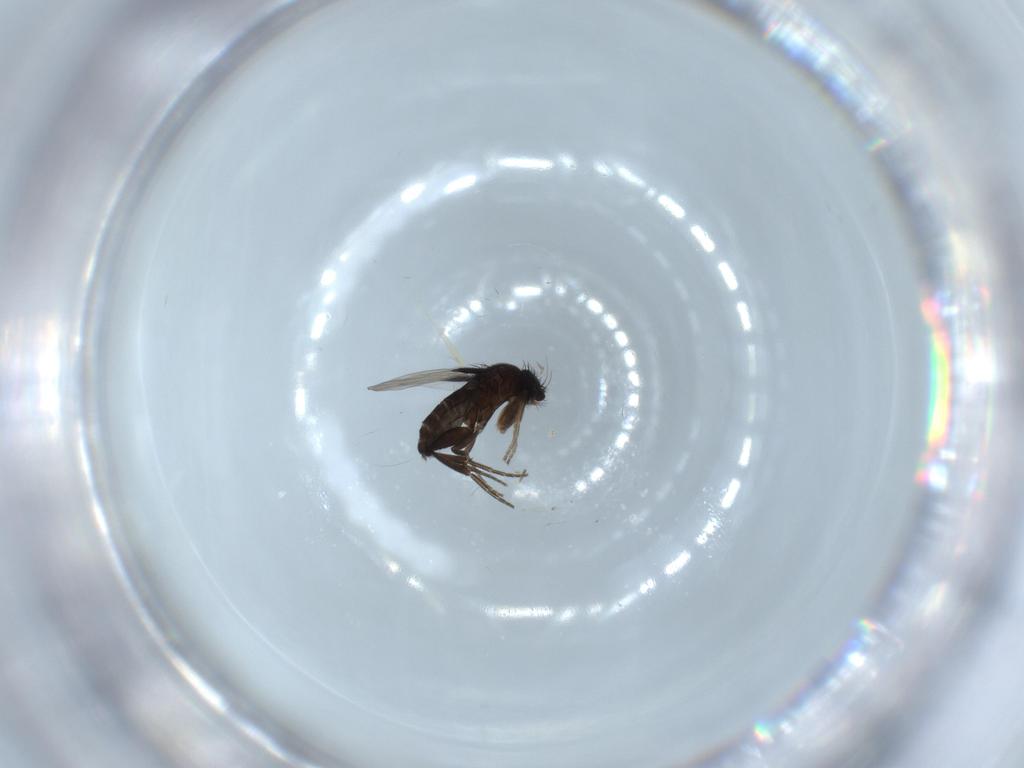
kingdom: Animalia
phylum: Arthropoda
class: Insecta
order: Diptera
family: Phoridae
